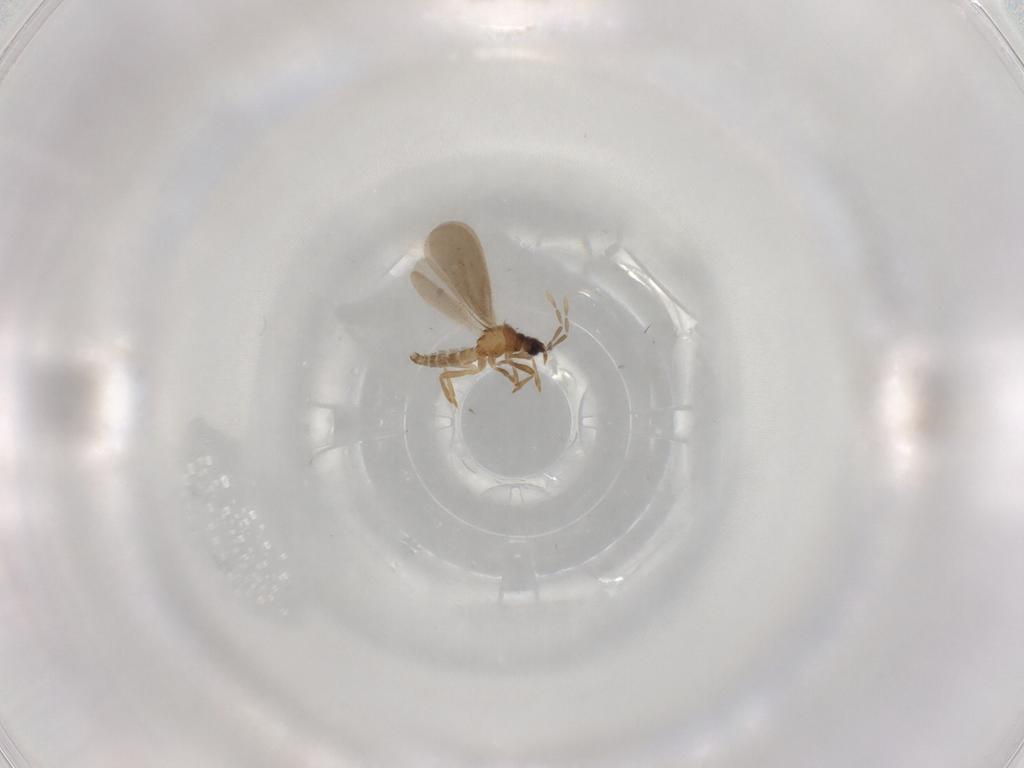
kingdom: Animalia
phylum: Arthropoda
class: Insecta
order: Hemiptera
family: Enicocephalidae
